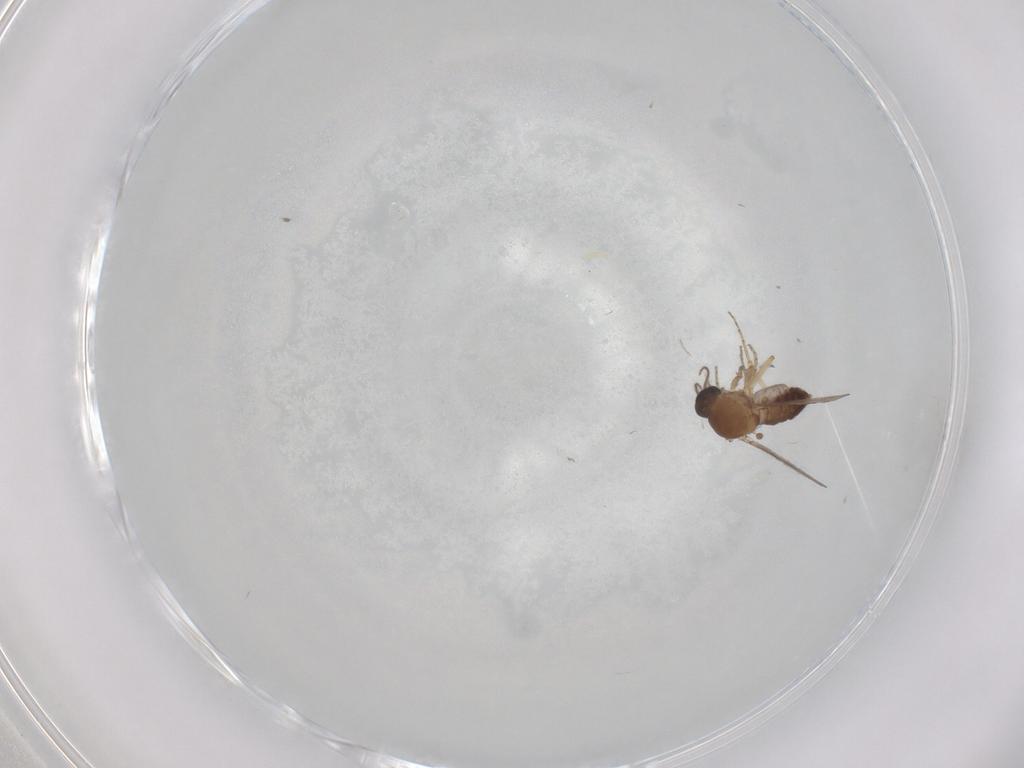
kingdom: Animalia
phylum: Arthropoda
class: Insecta
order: Diptera
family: Ceratopogonidae
